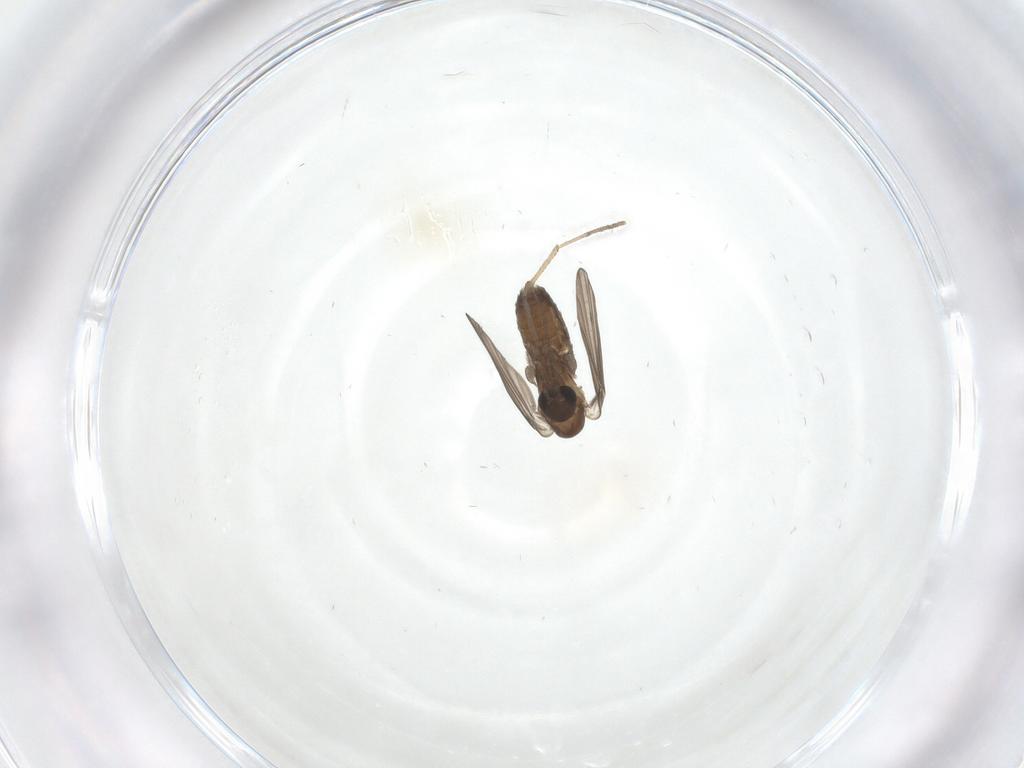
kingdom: Animalia
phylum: Arthropoda
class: Insecta
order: Diptera
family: Psychodidae
